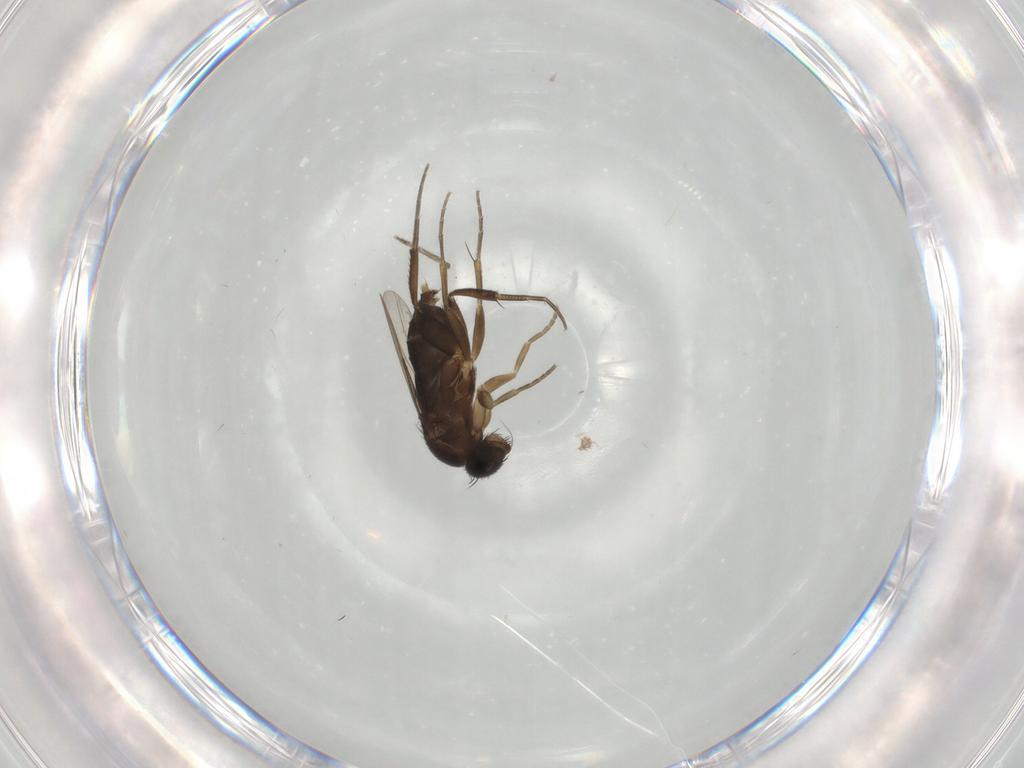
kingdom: Animalia
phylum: Arthropoda
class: Insecta
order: Diptera
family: Phoridae
